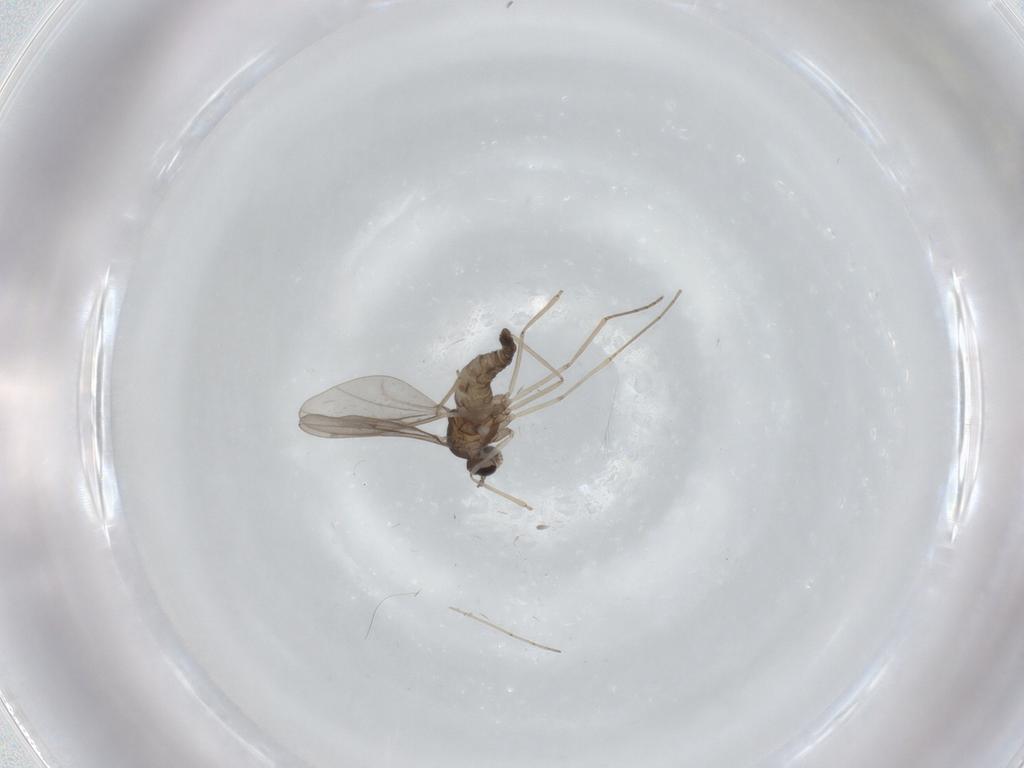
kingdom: Animalia
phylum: Arthropoda
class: Insecta
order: Diptera
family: Cecidomyiidae
